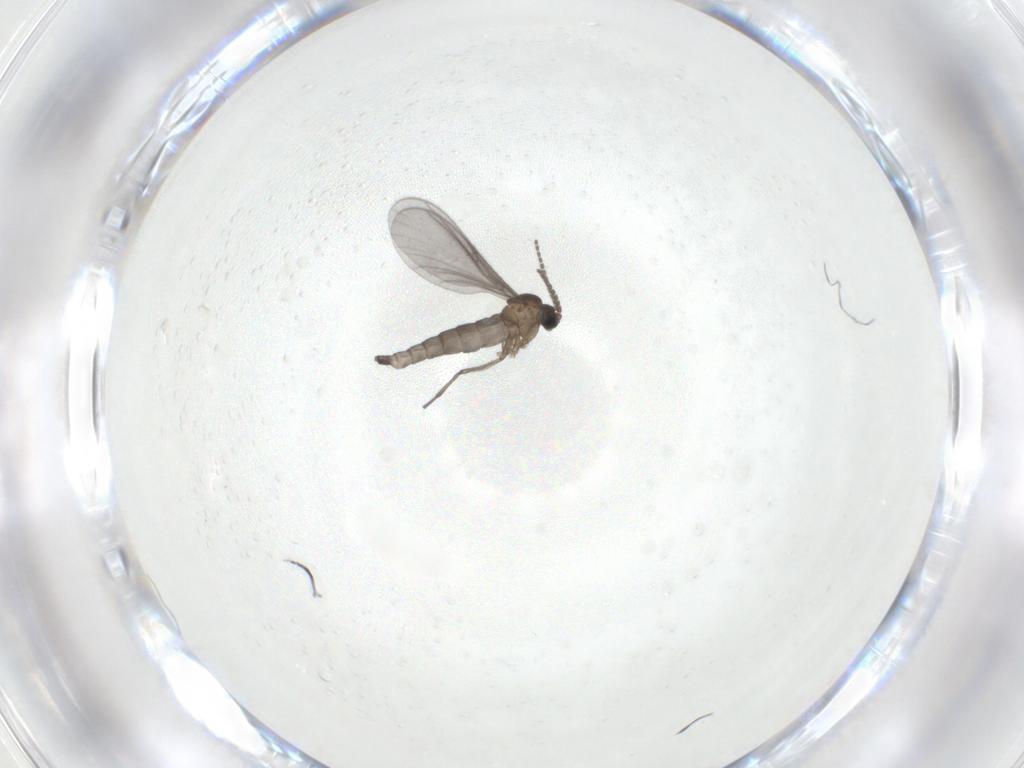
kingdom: Animalia
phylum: Arthropoda
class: Insecta
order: Diptera
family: Sciaridae
